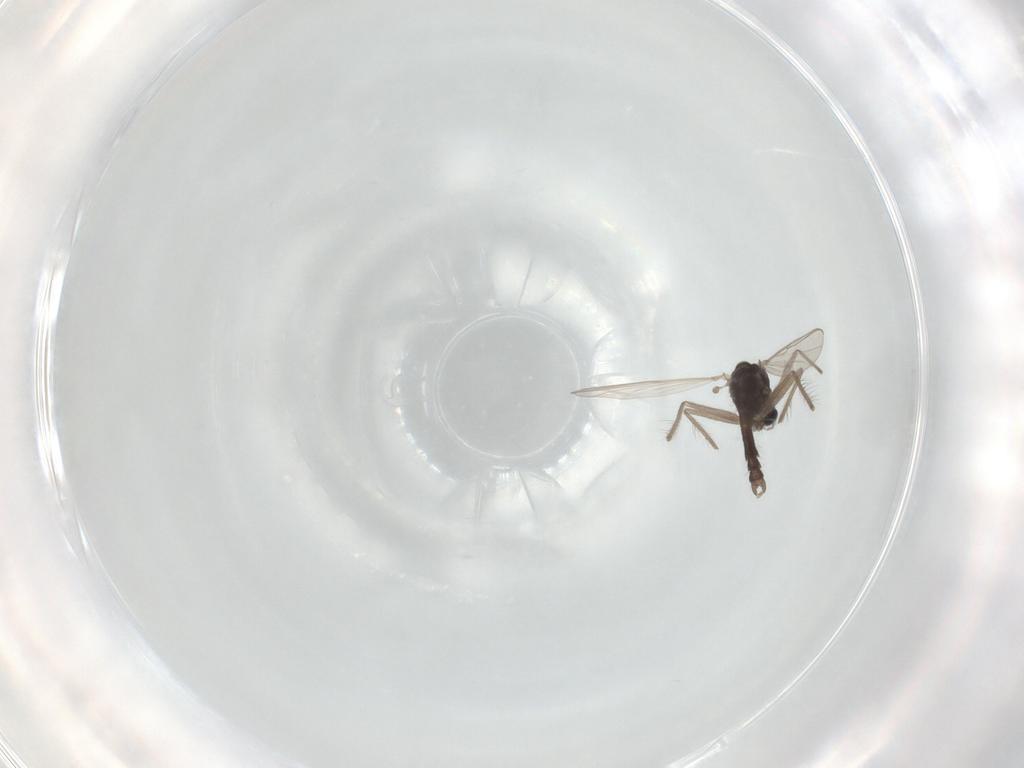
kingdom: Animalia
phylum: Arthropoda
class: Insecta
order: Diptera
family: Chironomidae
